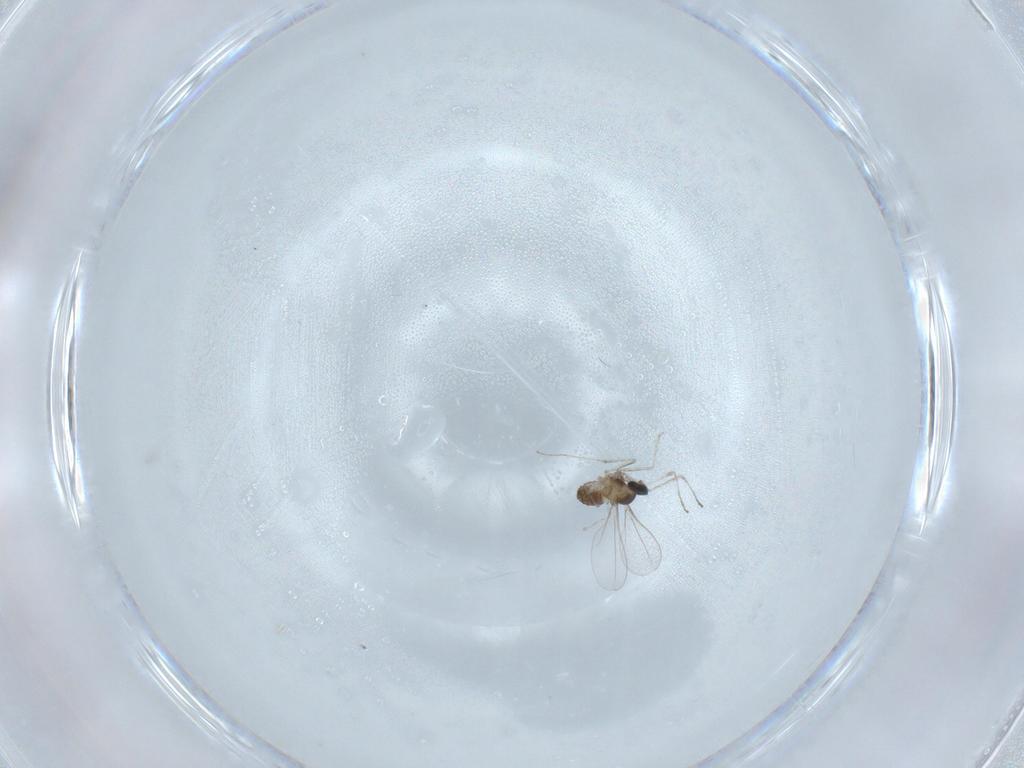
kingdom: Animalia
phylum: Arthropoda
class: Insecta
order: Diptera
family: Cecidomyiidae
